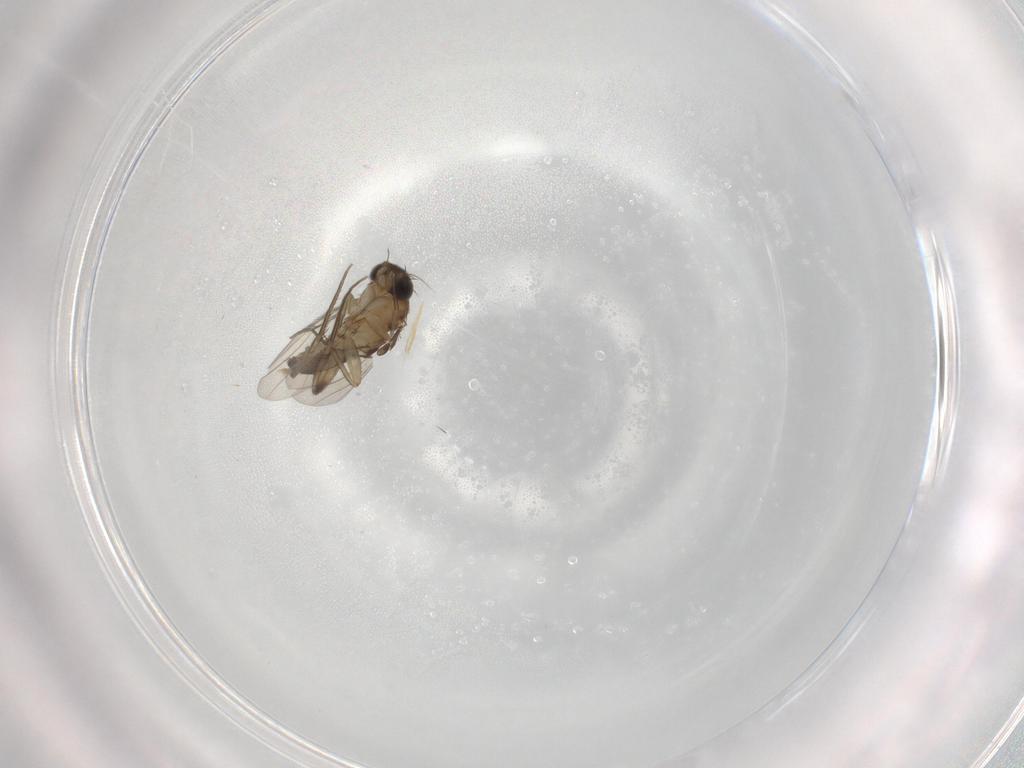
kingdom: Animalia
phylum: Arthropoda
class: Insecta
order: Diptera
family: Phoridae
